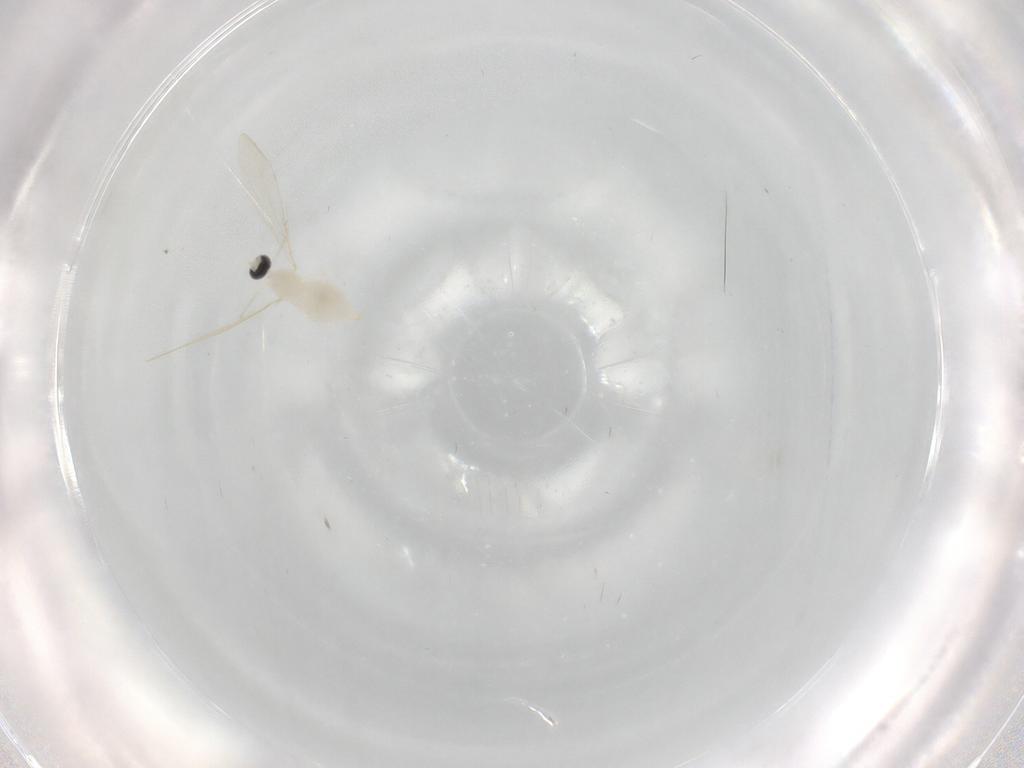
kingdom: Animalia
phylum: Arthropoda
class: Insecta
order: Diptera
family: Cecidomyiidae
